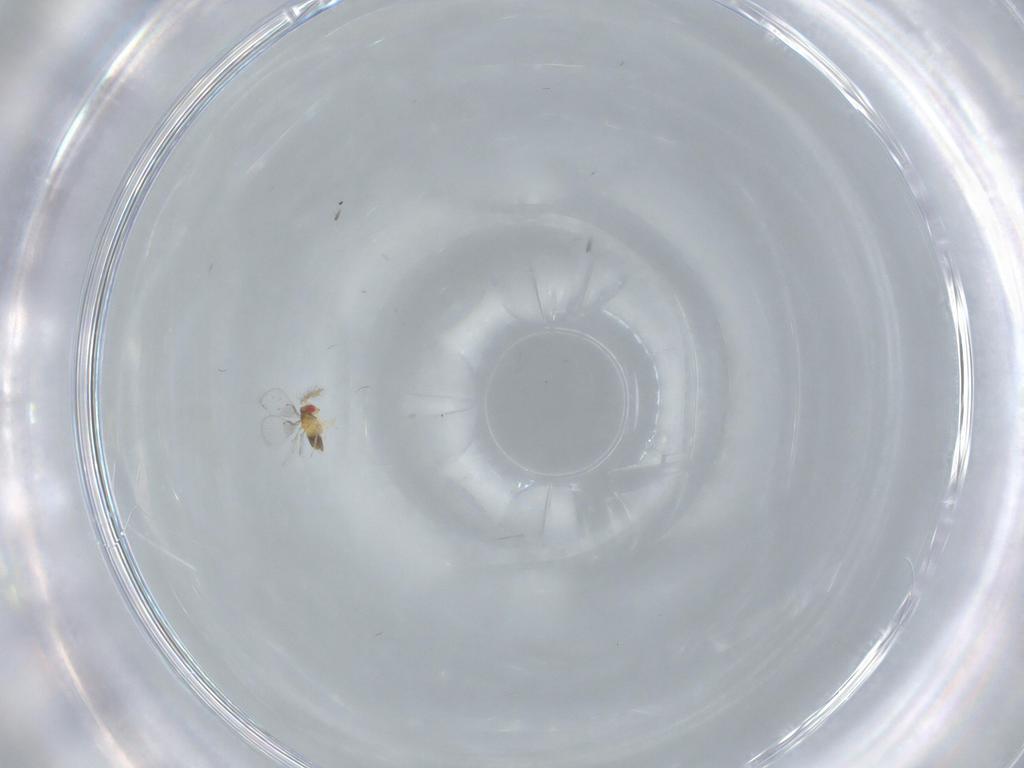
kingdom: Animalia
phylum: Arthropoda
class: Insecta
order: Hymenoptera
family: Trichogrammatidae
